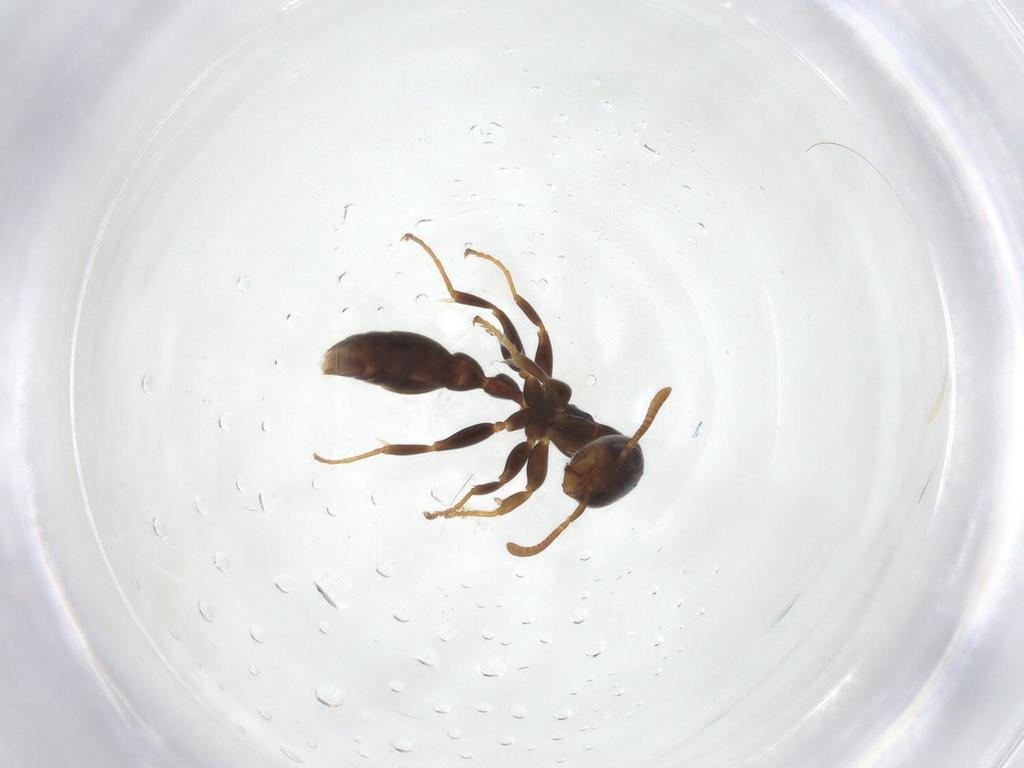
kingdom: Animalia
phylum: Arthropoda
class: Insecta
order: Hymenoptera
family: Formicidae
